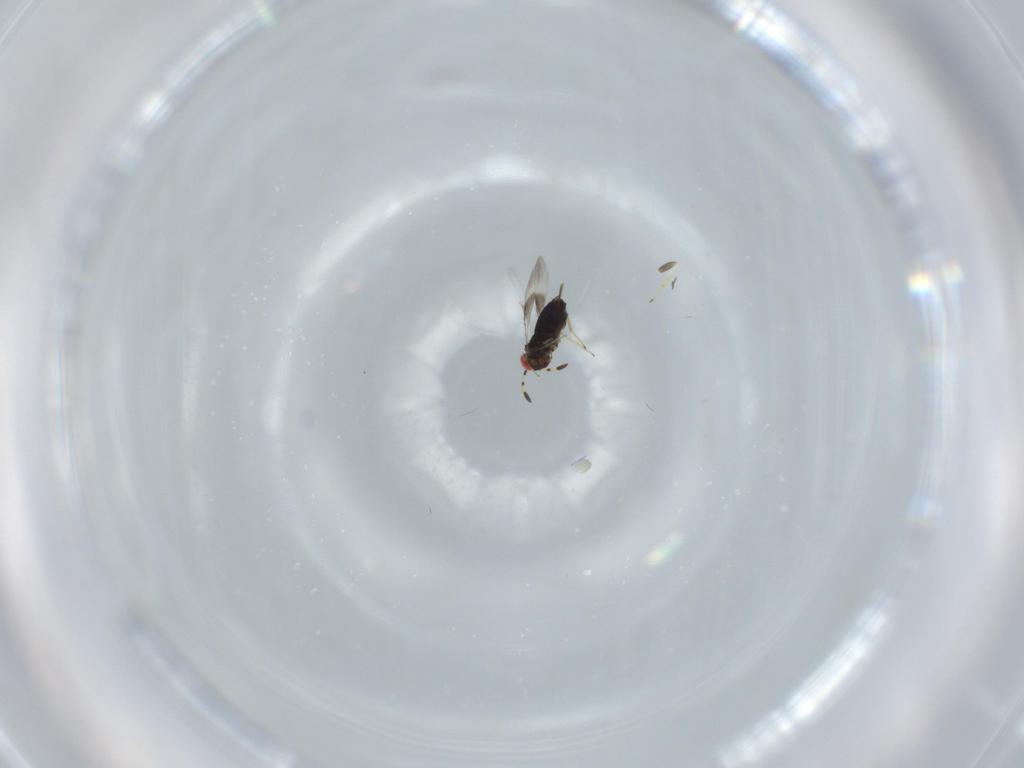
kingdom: Animalia
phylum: Arthropoda
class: Insecta
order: Hymenoptera
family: Azotidae
